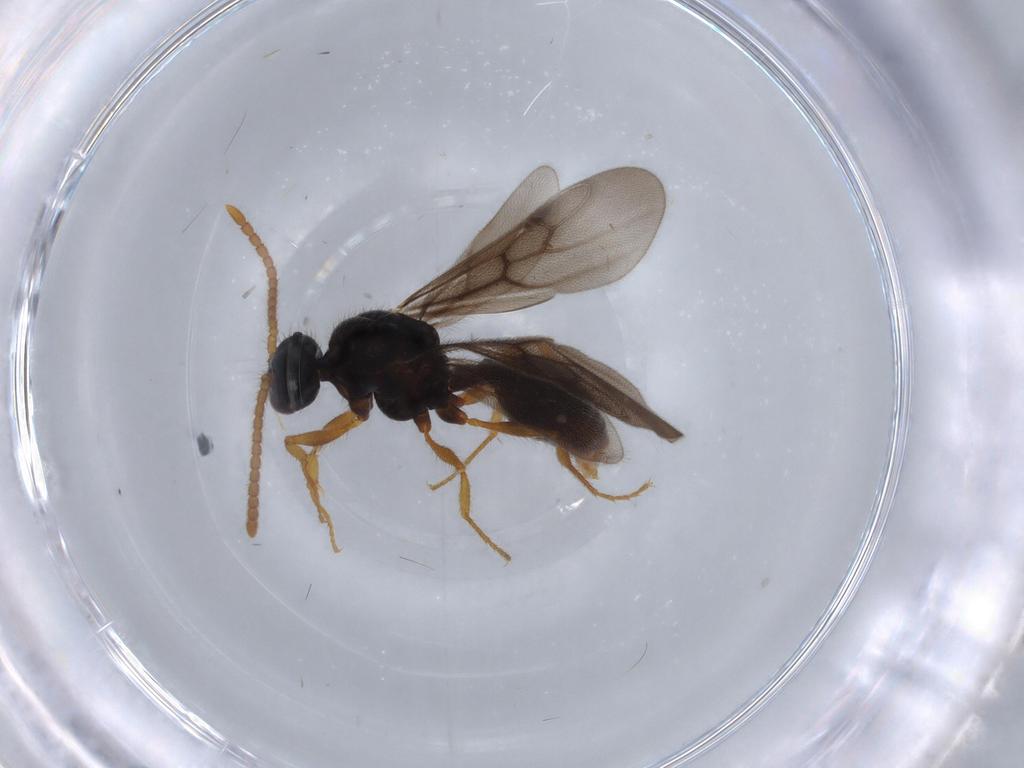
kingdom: Animalia
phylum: Arthropoda
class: Insecta
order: Hymenoptera
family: Formicidae
